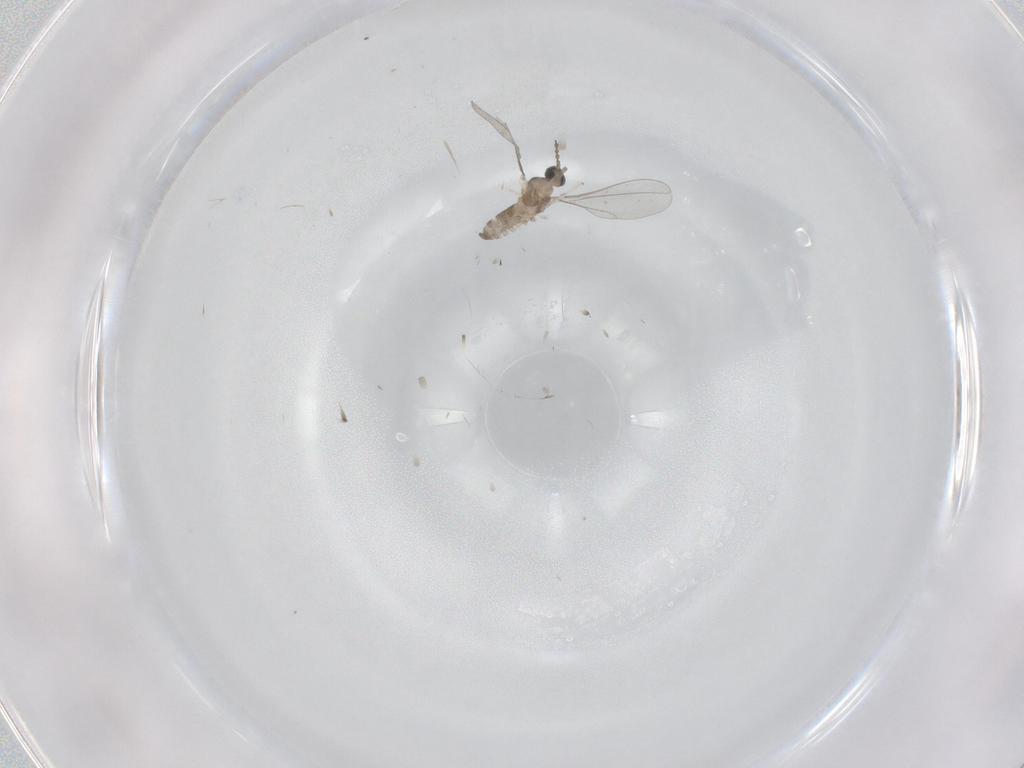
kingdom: Animalia
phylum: Arthropoda
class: Insecta
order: Diptera
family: Cecidomyiidae
